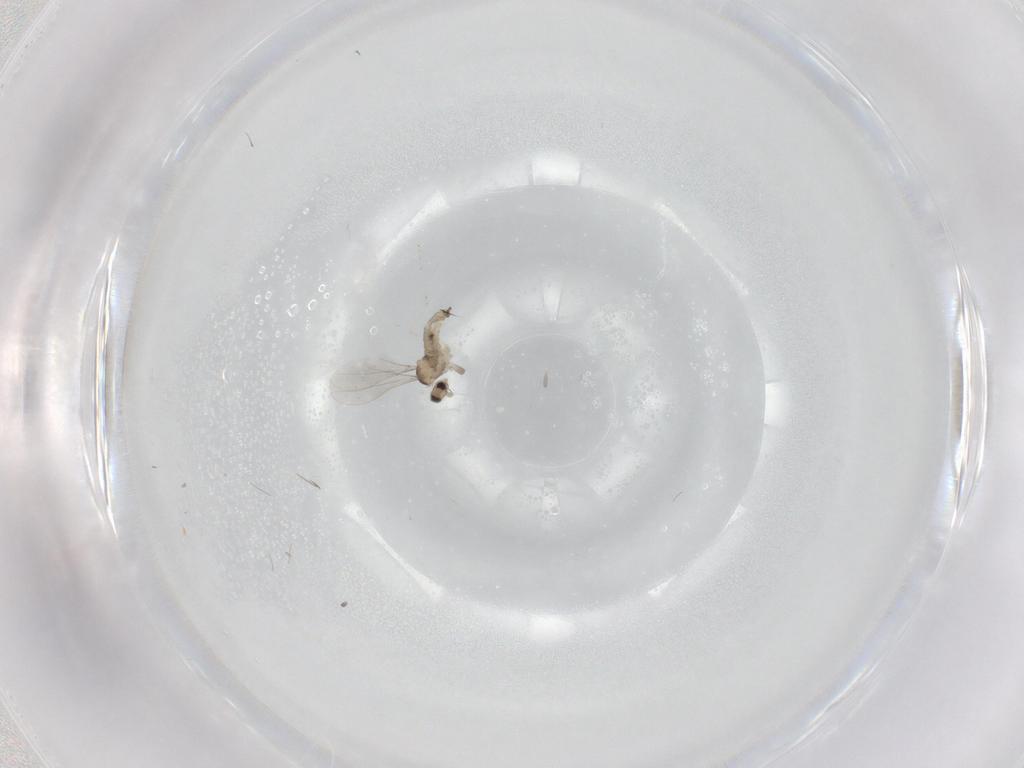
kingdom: Animalia
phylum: Arthropoda
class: Insecta
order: Diptera
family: Cecidomyiidae
